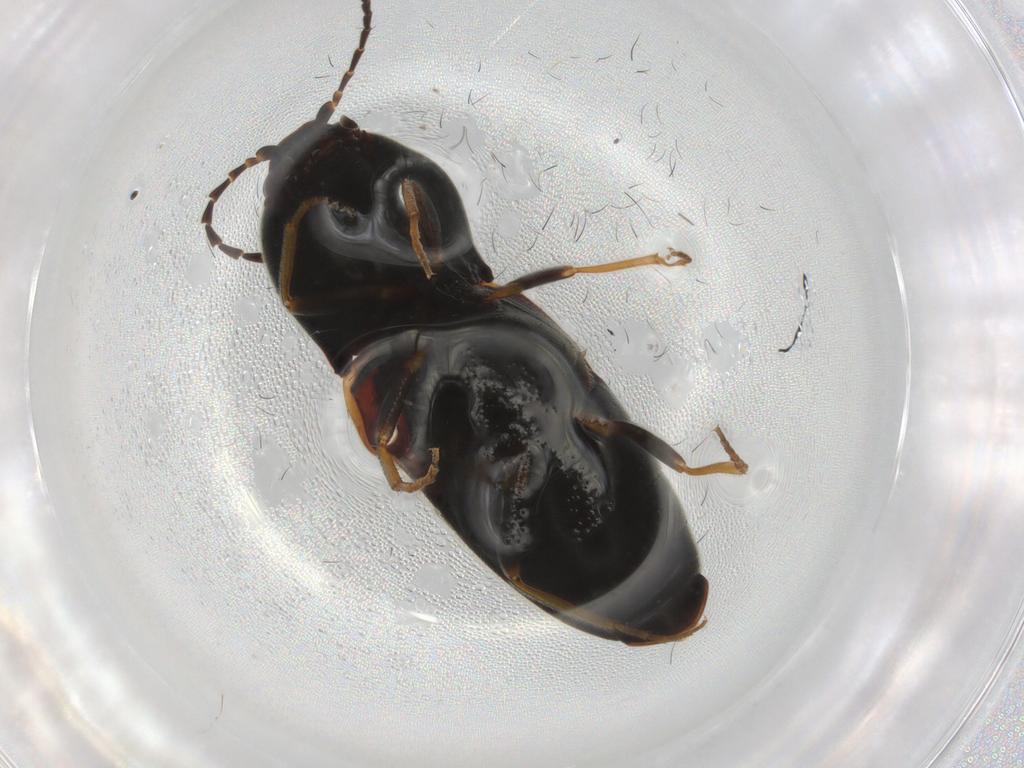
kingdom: Animalia
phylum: Arthropoda
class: Insecta
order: Coleoptera
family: Elateridae
